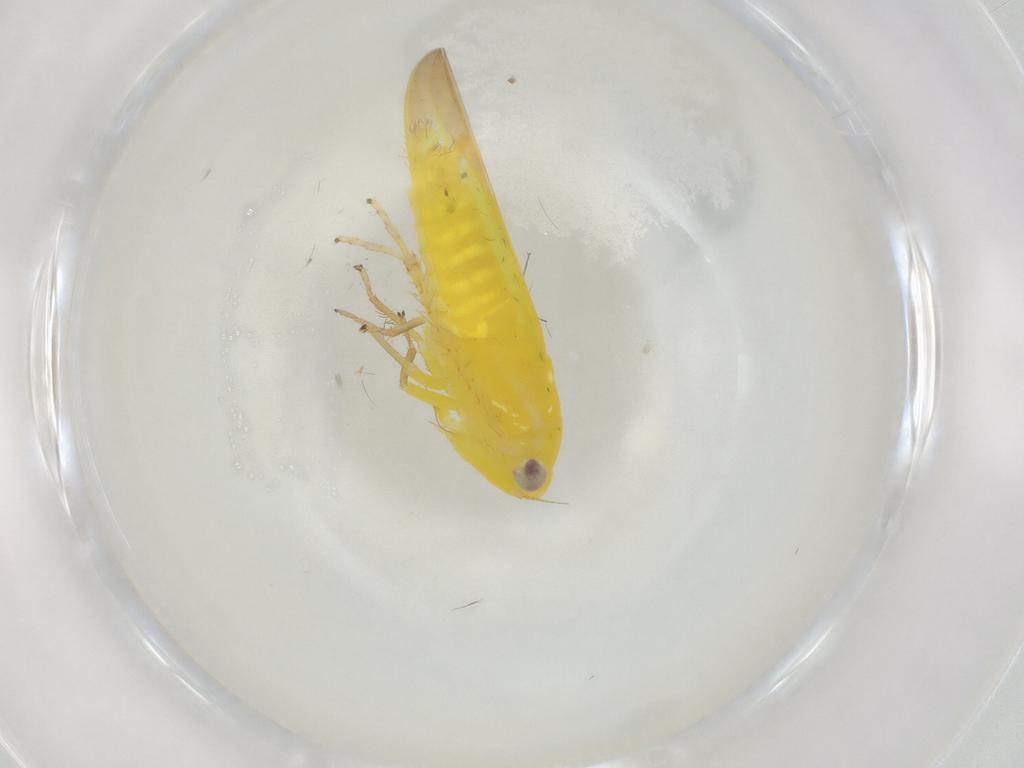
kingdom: Animalia
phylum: Arthropoda
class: Insecta
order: Hemiptera
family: Cicadellidae
